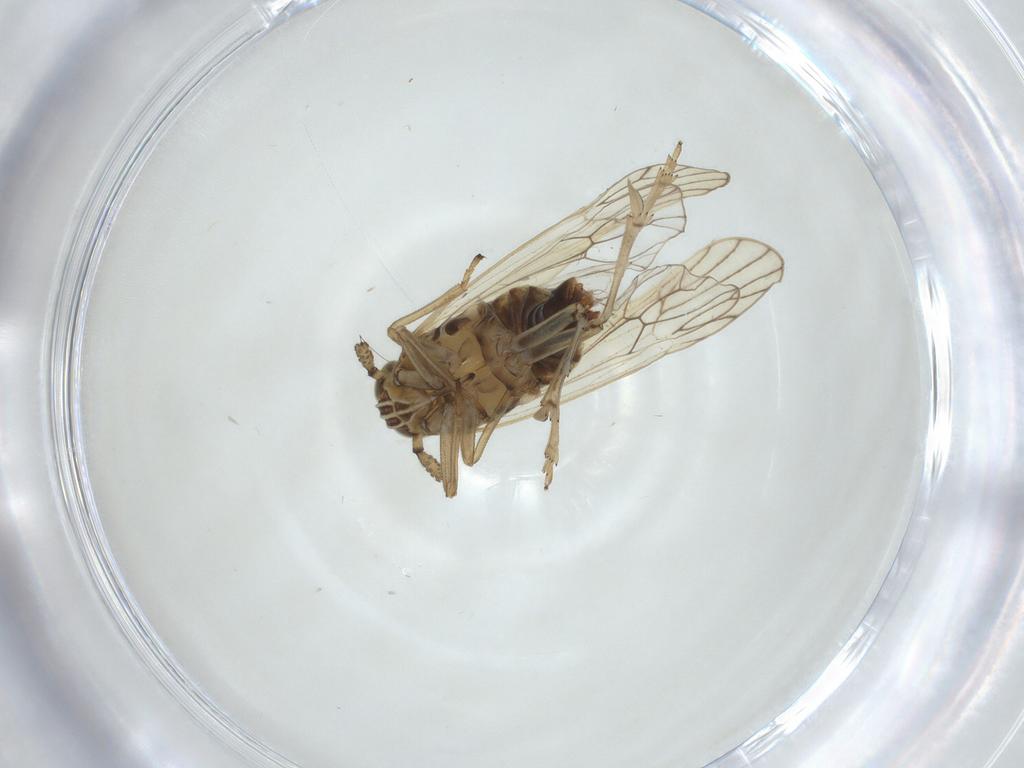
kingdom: Animalia
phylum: Arthropoda
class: Insecta
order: Hemiptera
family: Delphacidae
